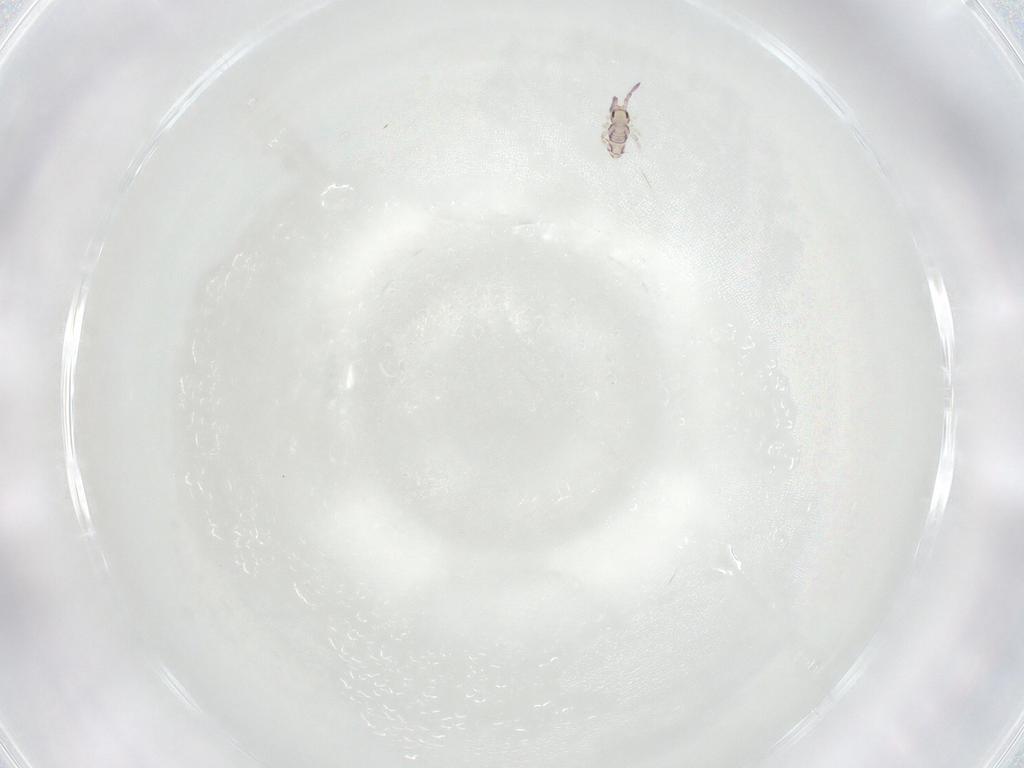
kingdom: Animalia
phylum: Arthropoda
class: Collembola
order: Entomobryomorpha
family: Entomobryidae
